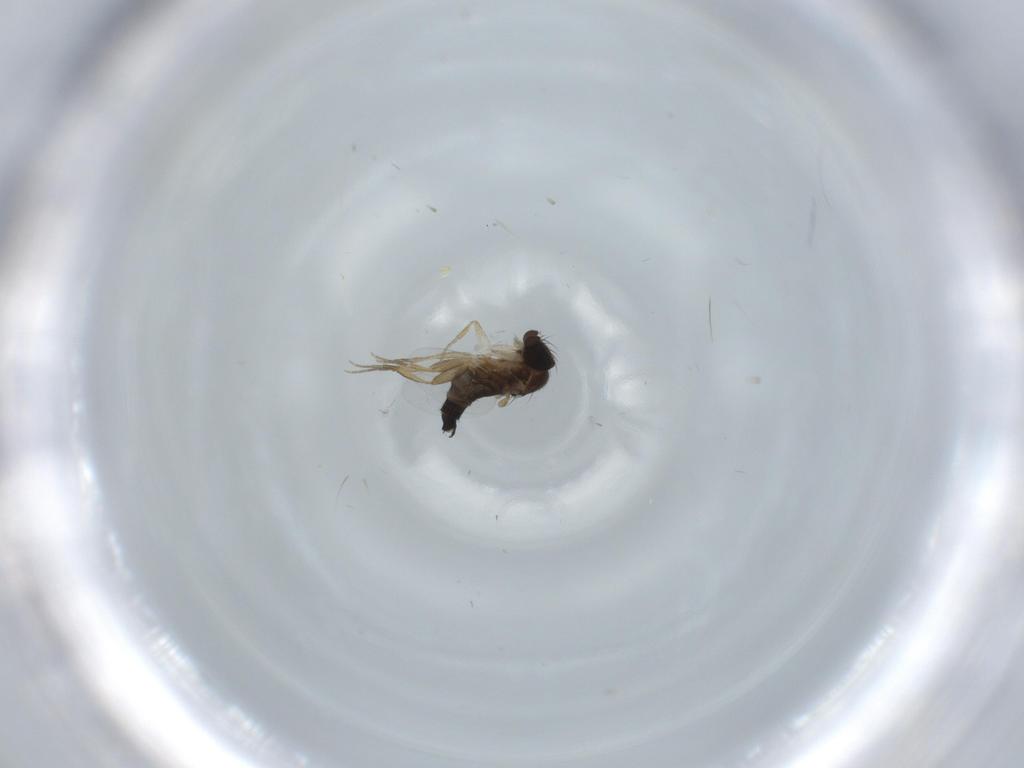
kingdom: Animalia
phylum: Arthropoda
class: Insecta
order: Diptera
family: Phoridae
